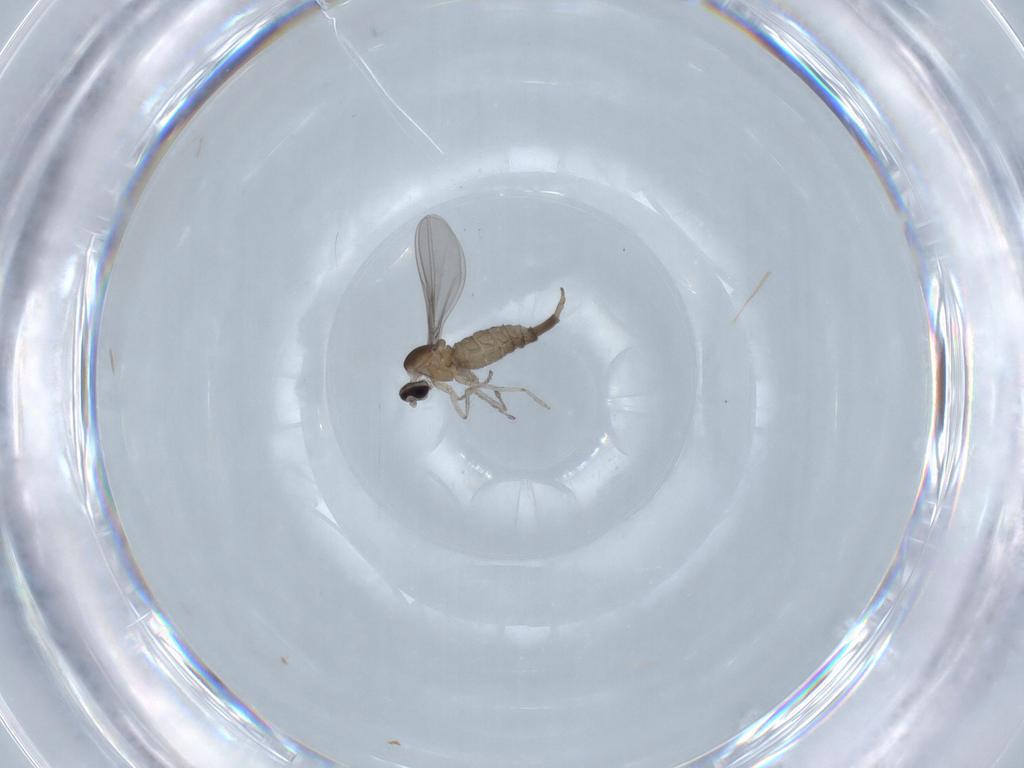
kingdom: Animalia
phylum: Arthropoda
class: Insecta
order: Diptera
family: Cecidomyiidae
